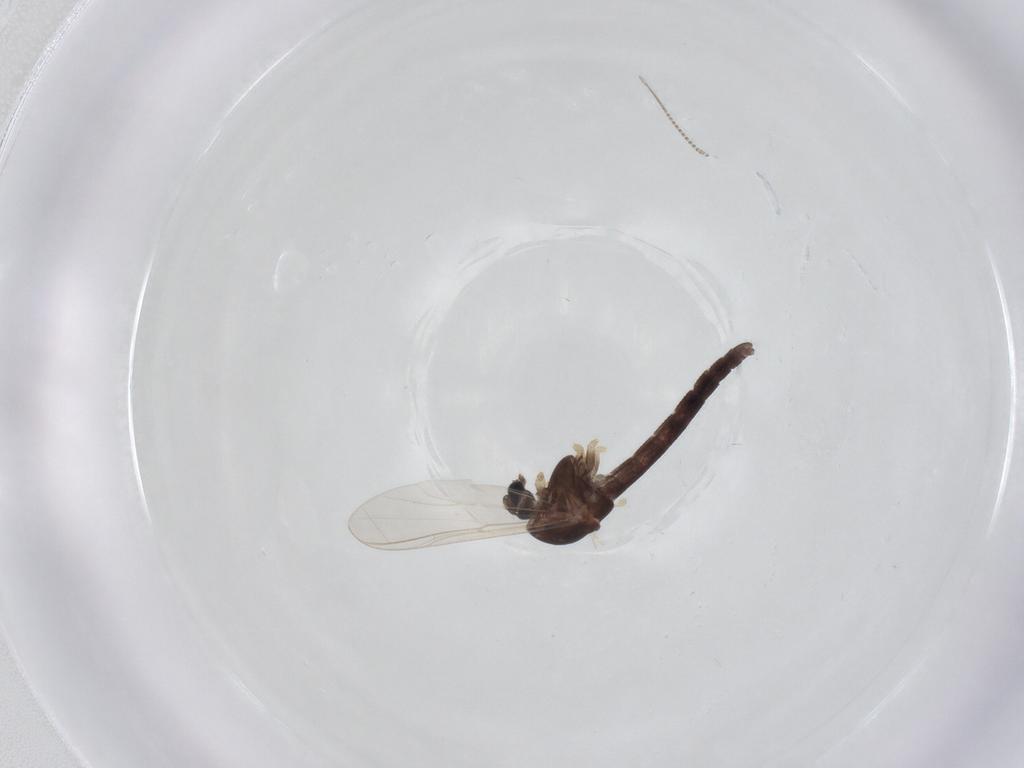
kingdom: Animalia
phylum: Arthropoda
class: Insecta
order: Diptera
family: Chironomidae
